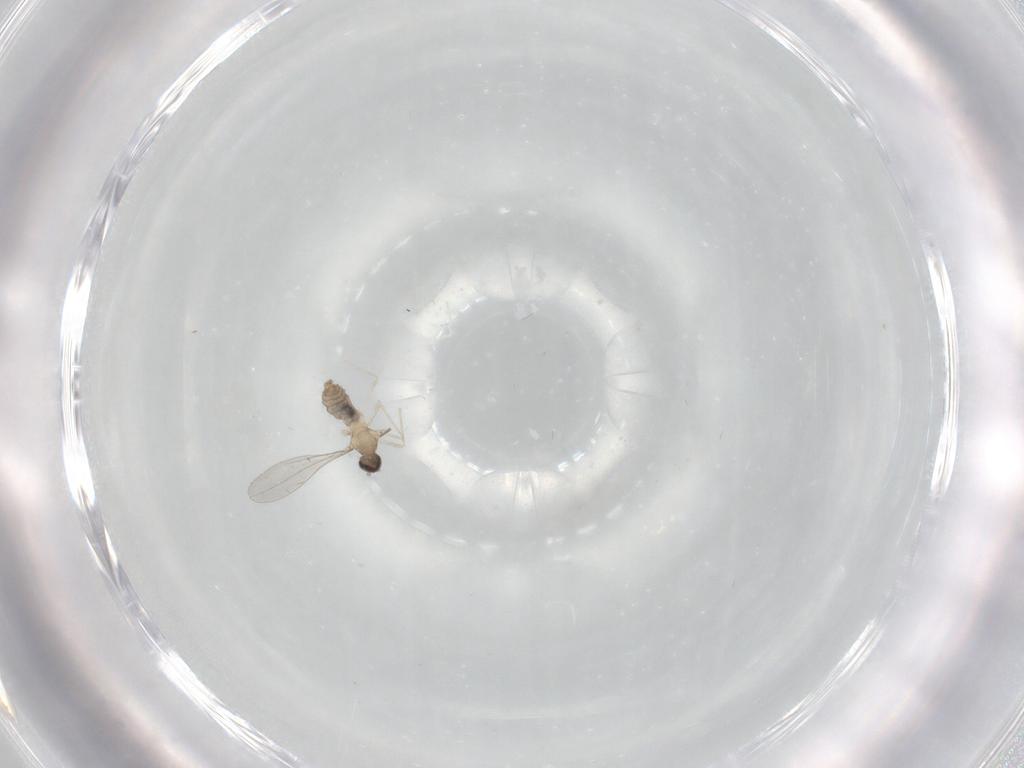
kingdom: Animalia
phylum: Arthropoda
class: Insecta
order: Diptera
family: Cecidomyiidae
